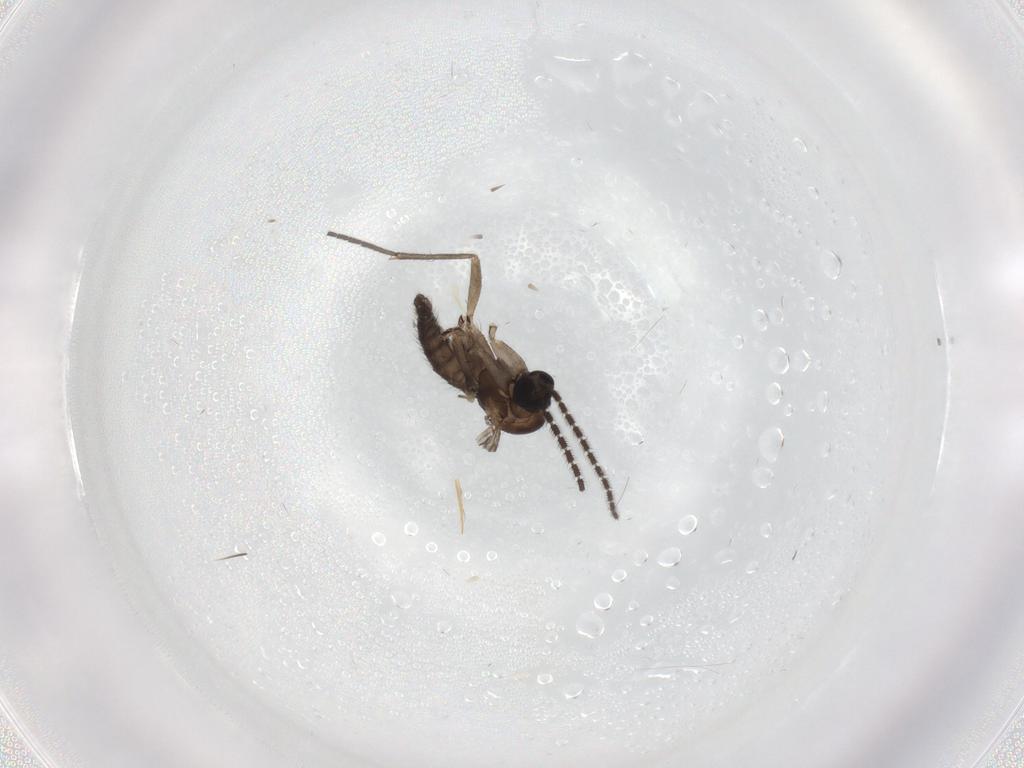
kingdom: Animalia
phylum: Arthropoda
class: Insecta
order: Diptera
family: Sciaridae
